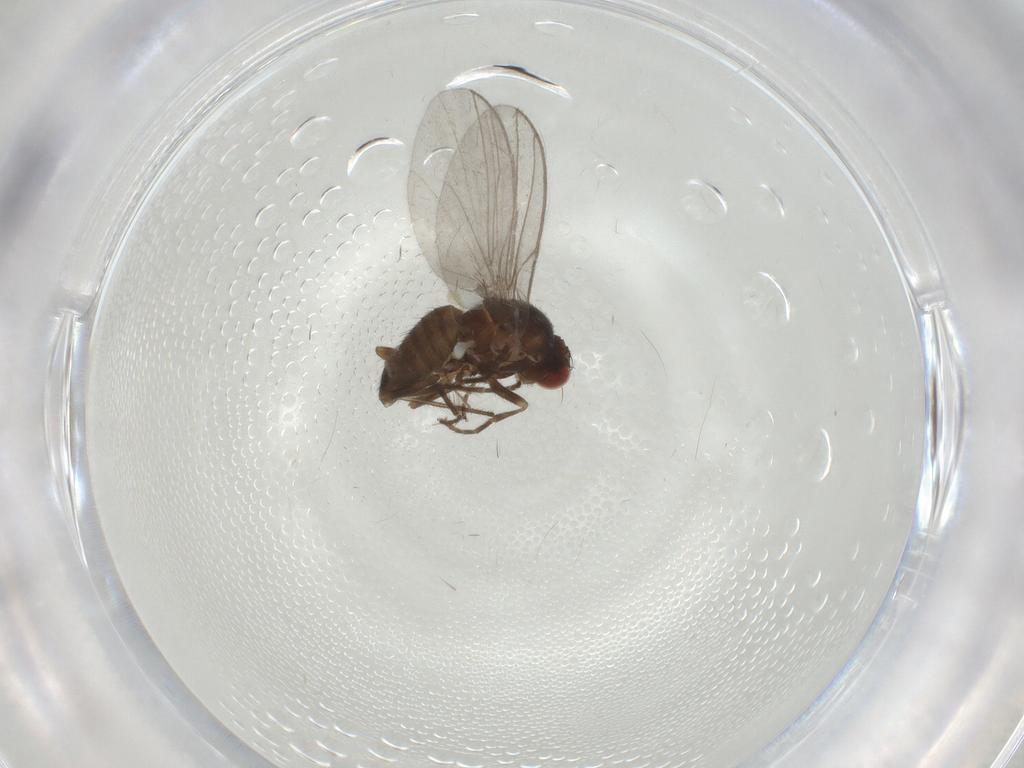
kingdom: Animalia
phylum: Arthropoda
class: Insecta
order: Diptera
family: Agromyzidae
